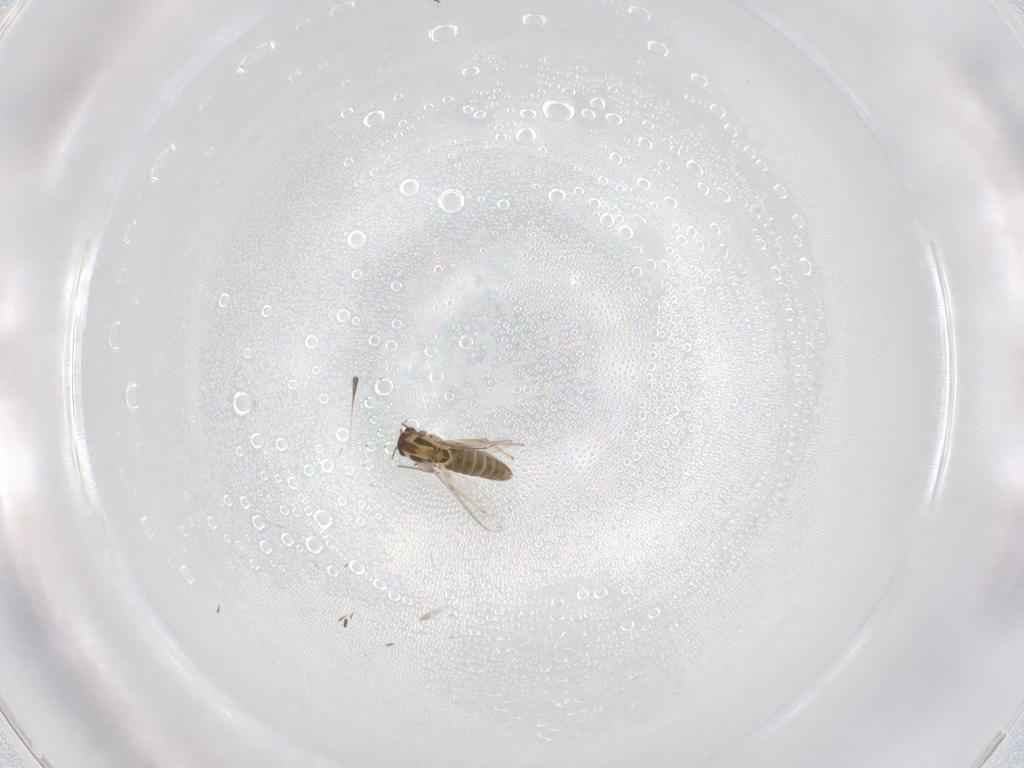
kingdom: Animalia
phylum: Arthropoda
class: Insecta
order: Diptera
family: Cecidomyiidae
